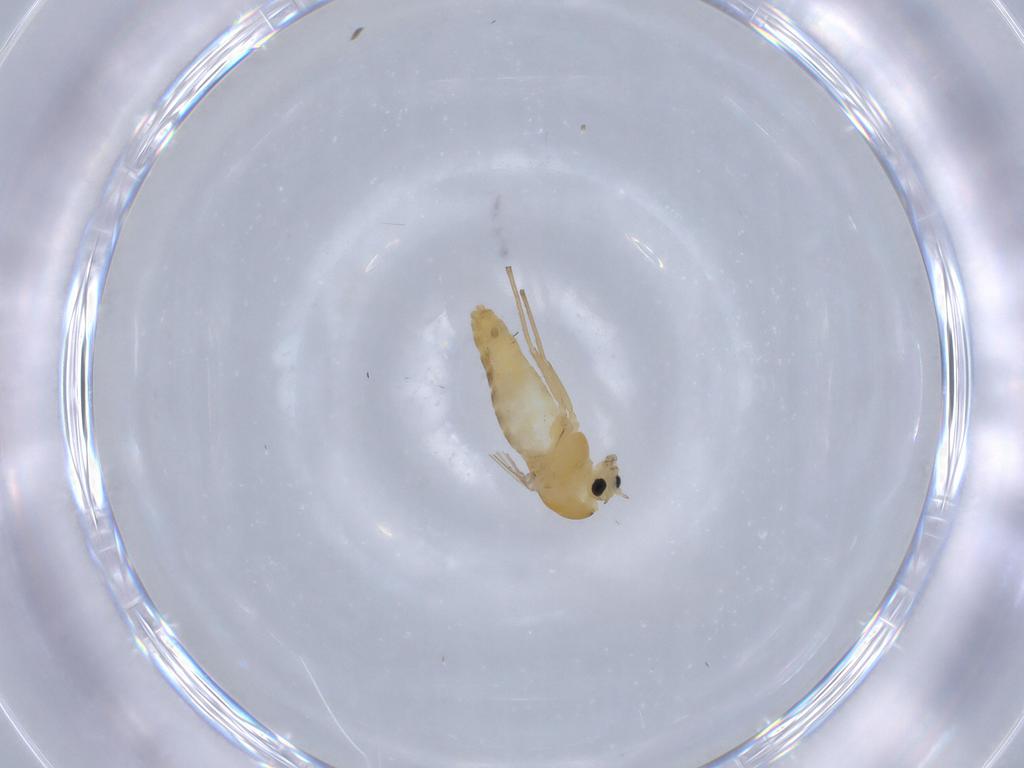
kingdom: Animalia
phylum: Arthropoda
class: Insecta
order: Diptera
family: Chironomidae
